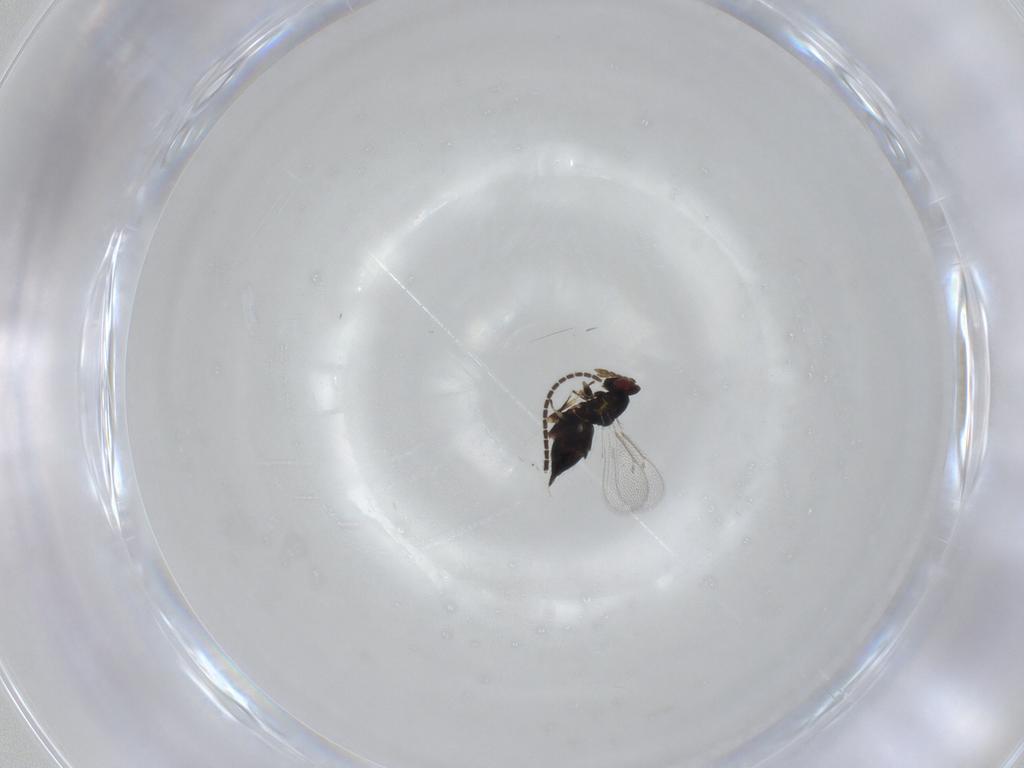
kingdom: Animalia
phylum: Arthropoda
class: Insecta
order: Hymenoptera
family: Eulophidae
